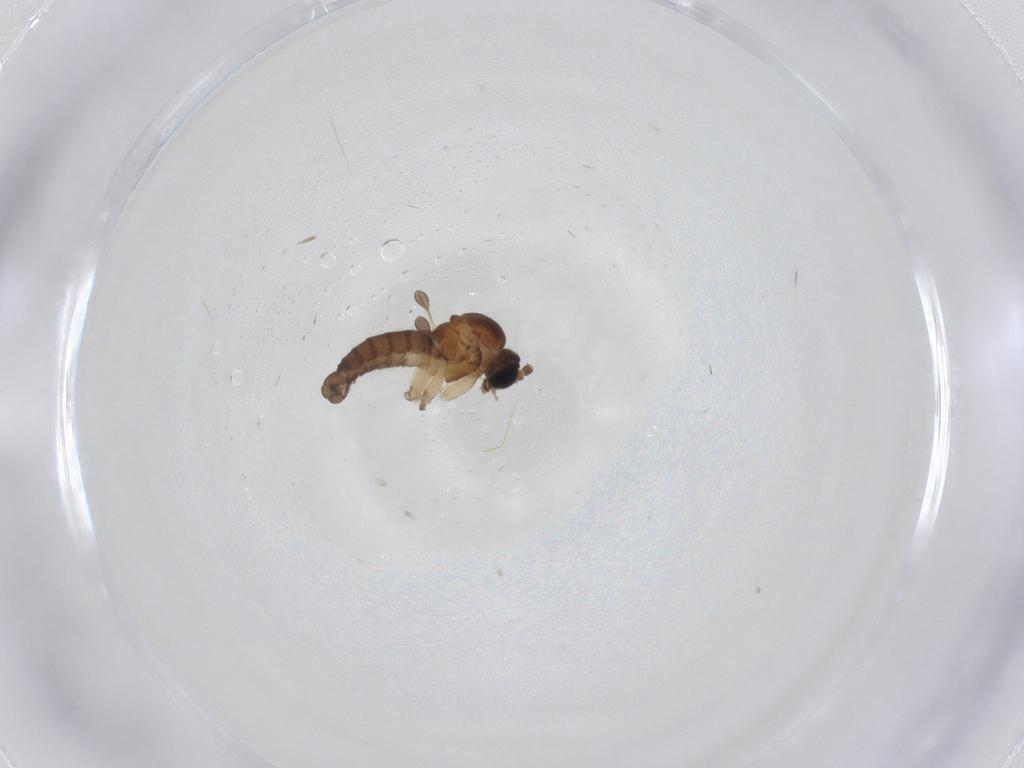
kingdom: Animalia
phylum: Arthropoda
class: Insecta
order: Diptera
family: Sciaridae
